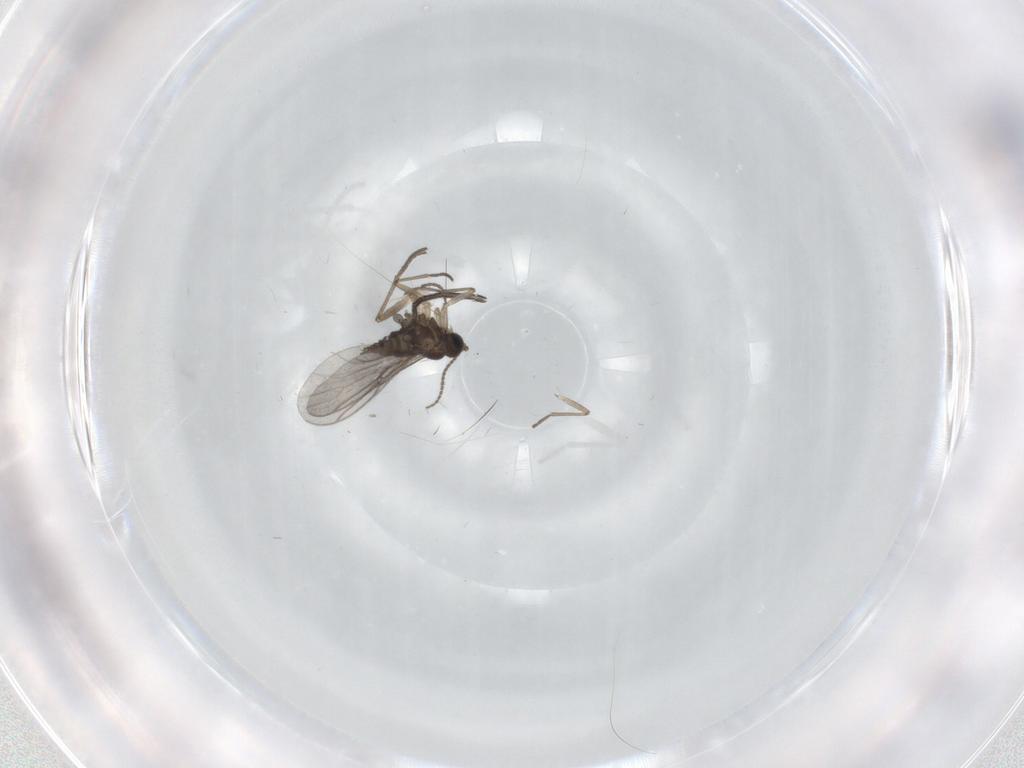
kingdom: Animalia
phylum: Arthropoda
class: Insecta
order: Diptera
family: Sciaridae
